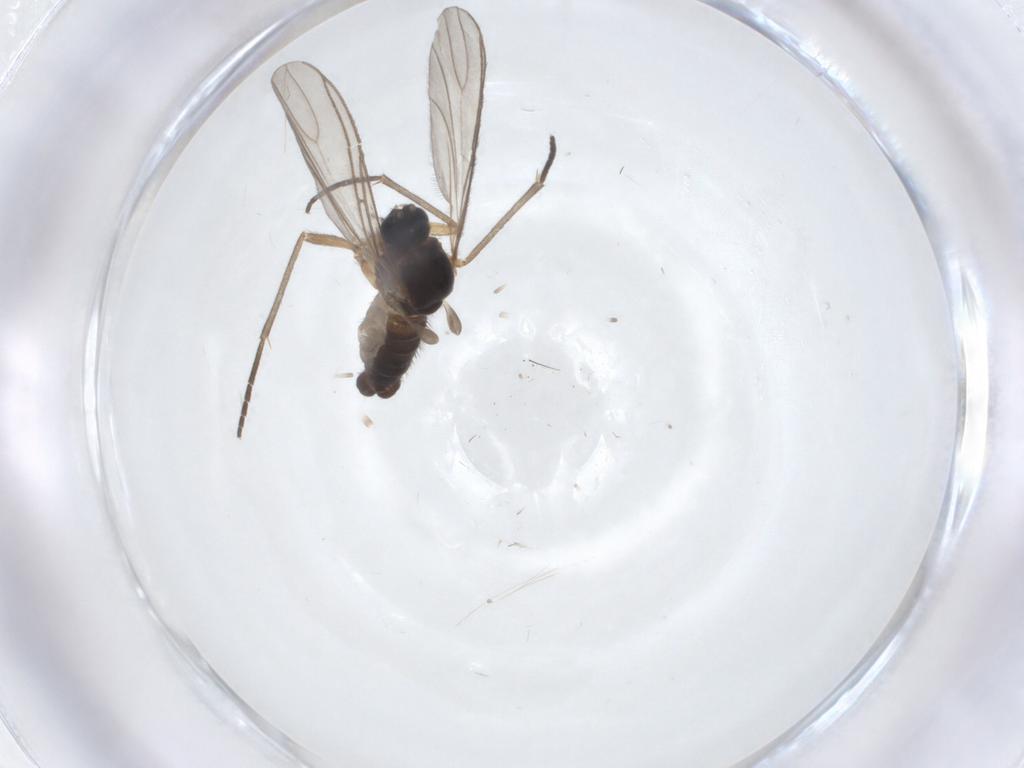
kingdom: Animalia
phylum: Arthropoda
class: Insecta
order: Diptera
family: Sciaridae
